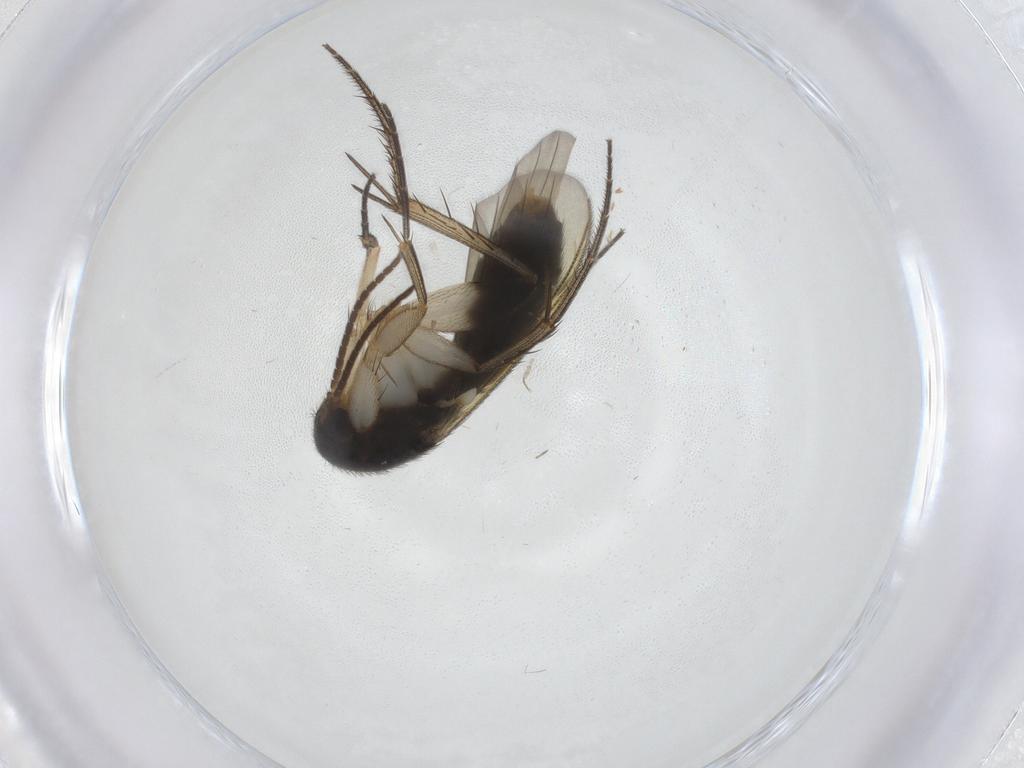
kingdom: Animalia
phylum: Arthropoda
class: Insecta
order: Diptera
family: Mycetophilidae
